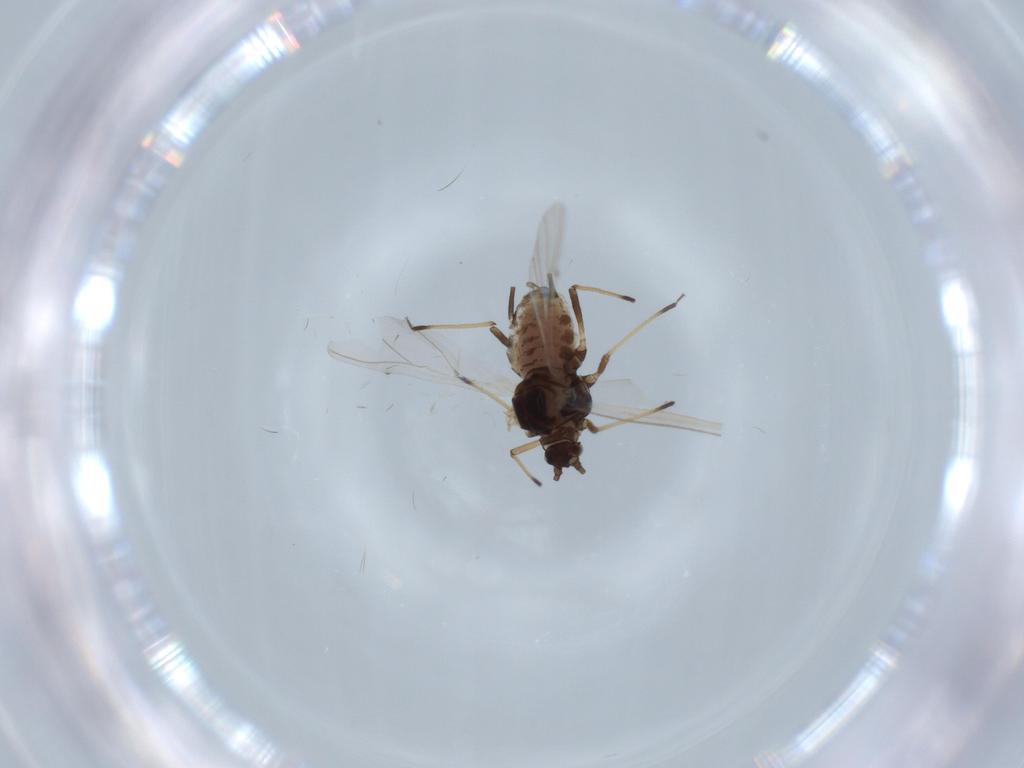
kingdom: Animalia
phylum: Arthropoda
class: Insecta
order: Hemiptera
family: Aphididae
